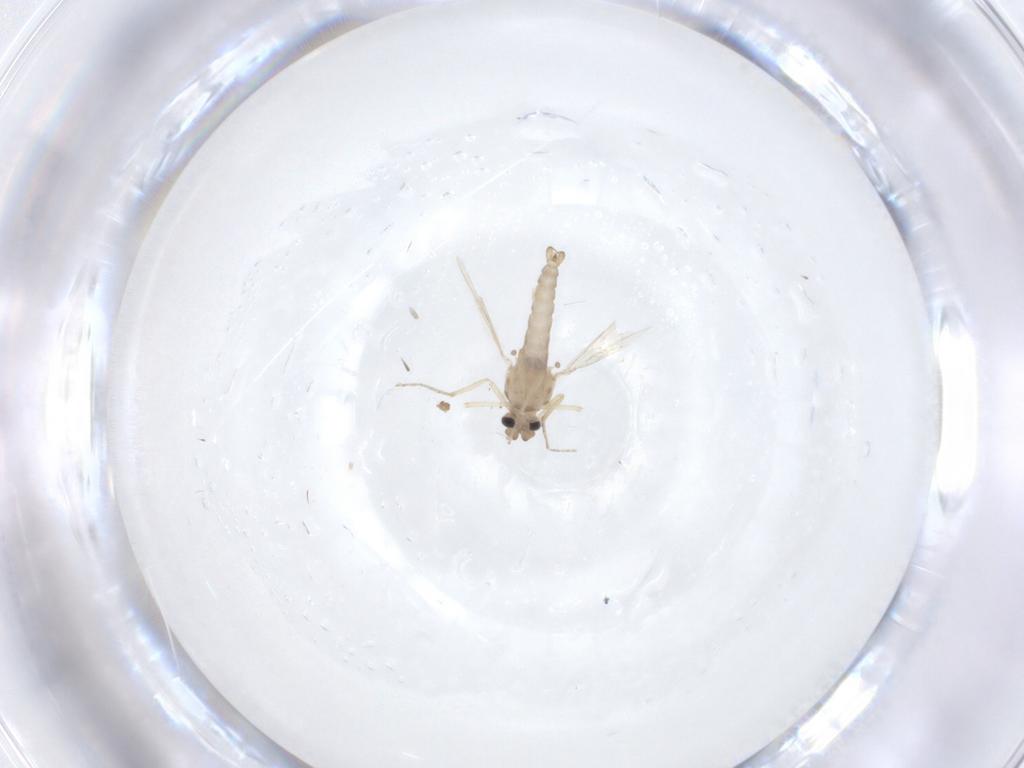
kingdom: Animalia
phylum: Arthropoda
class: Insecta
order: Diptera
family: Ceratopogonidae
